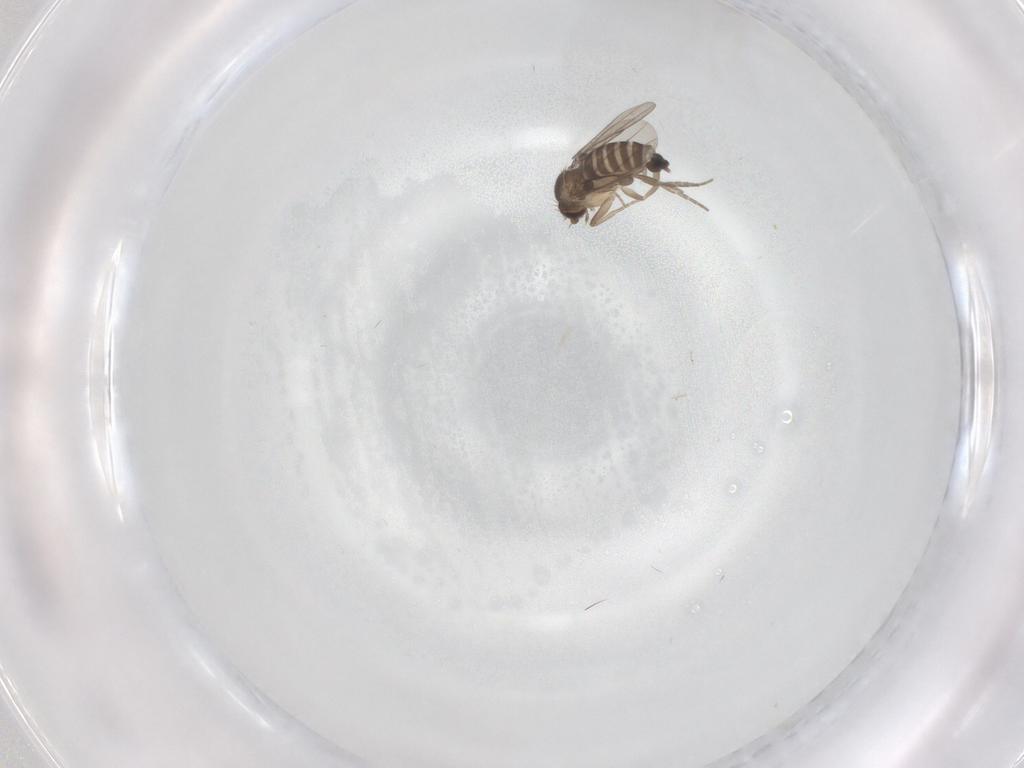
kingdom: Animalia
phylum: Arthropoda
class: Insecta
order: Diptera
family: Phoridae
